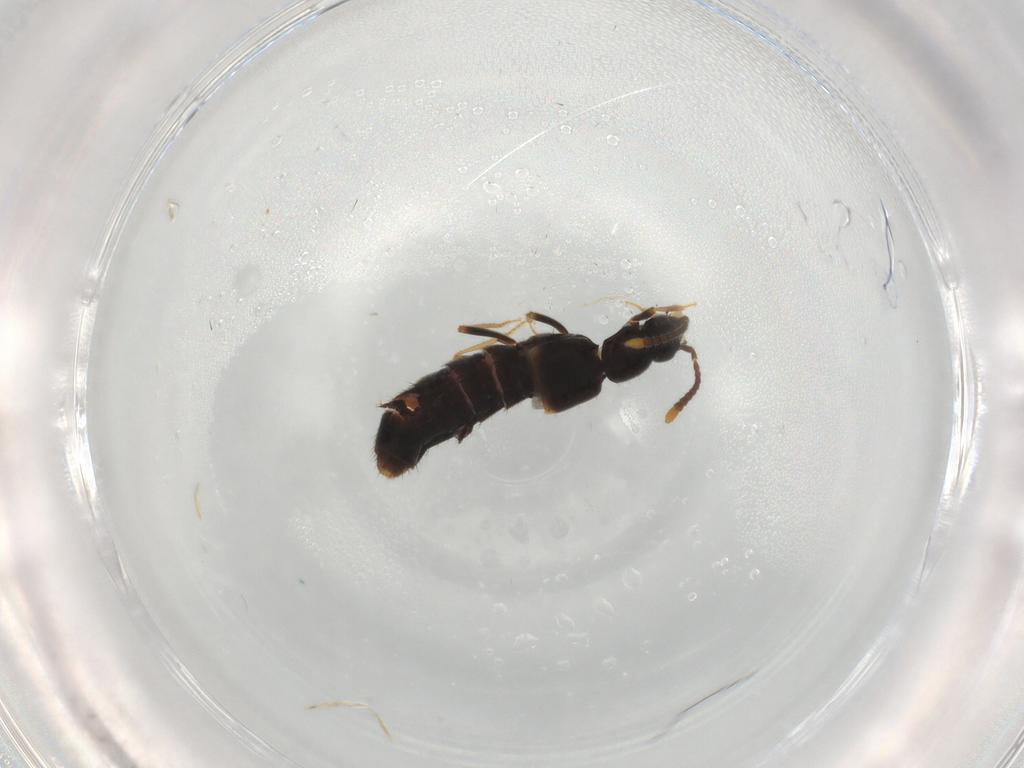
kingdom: Animalia
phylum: Arthropoda
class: Insecta
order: Coleoptera
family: Staphylinidae
